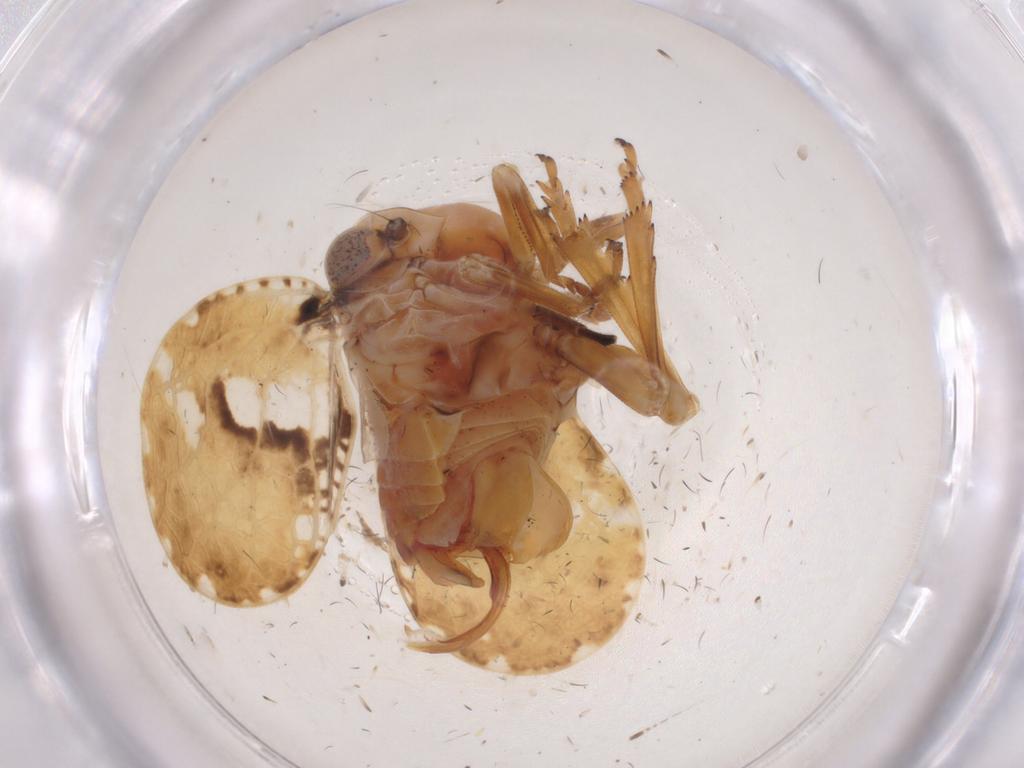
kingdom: Animalia
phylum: Arthropoda
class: Insecta
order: Hemiptera
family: Fulgoroidea_incertae_sedis
